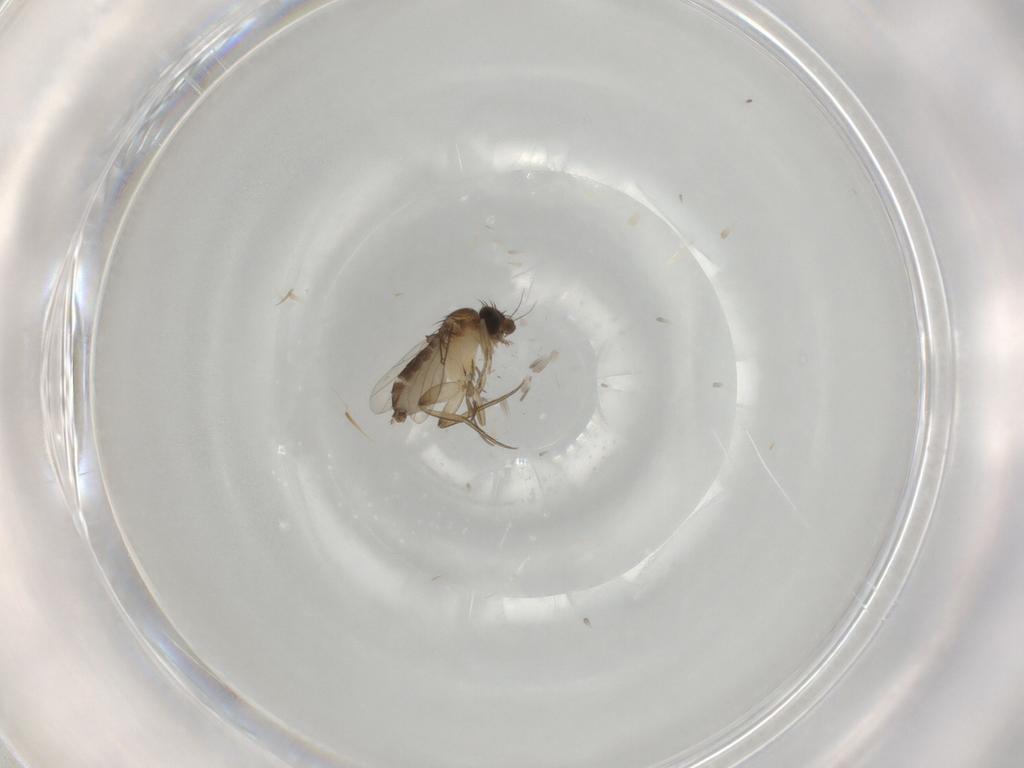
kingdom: Animalia
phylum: Arthropoda
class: Insecta
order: Diptera
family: Phoridae
